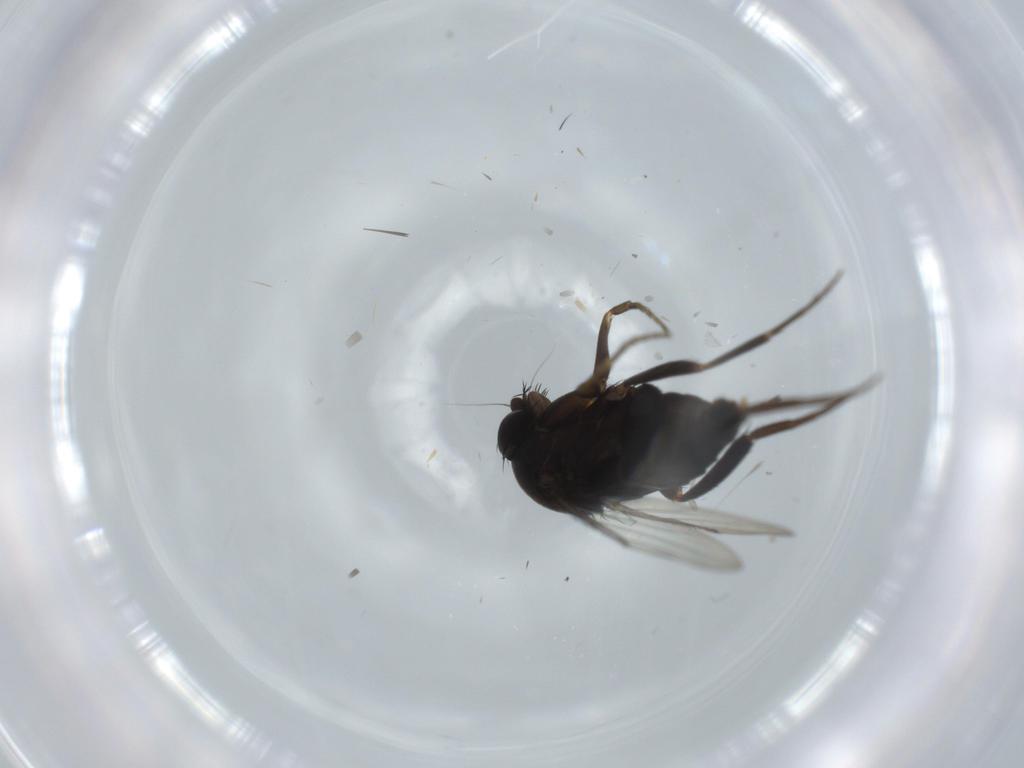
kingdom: Animalia
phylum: Arthropoda
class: Insecta
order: Diptera
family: Phoridae
